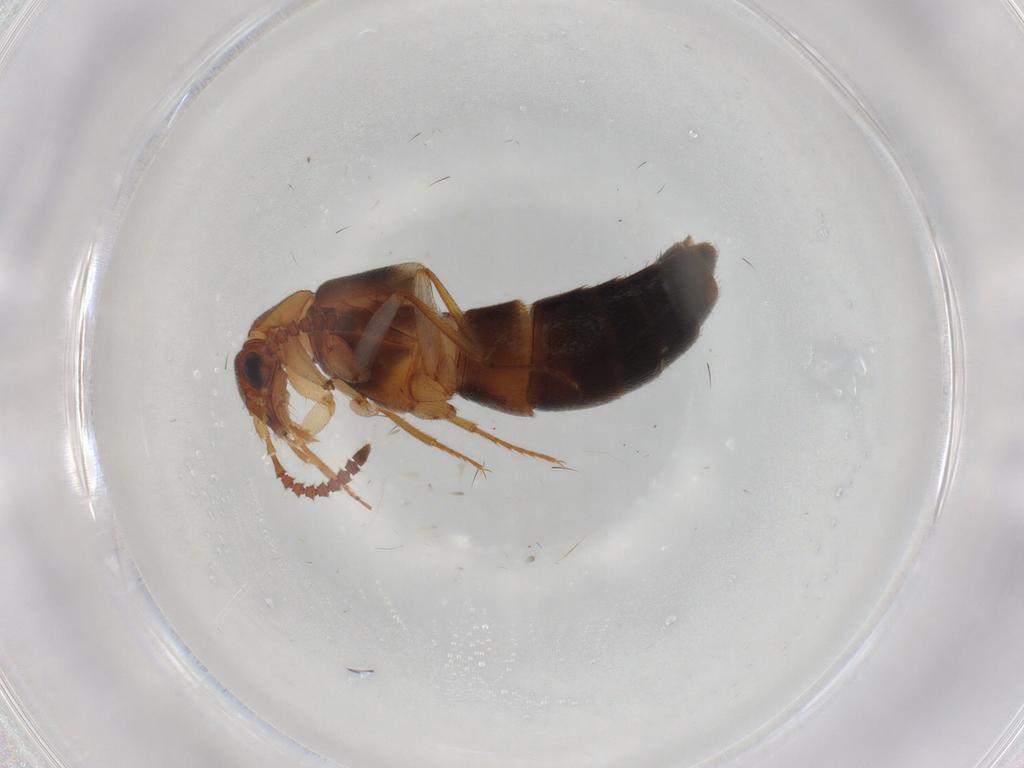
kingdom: Animalia
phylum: Arthropoda
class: Insecta
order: Coleoptera
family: Staphylinidae
